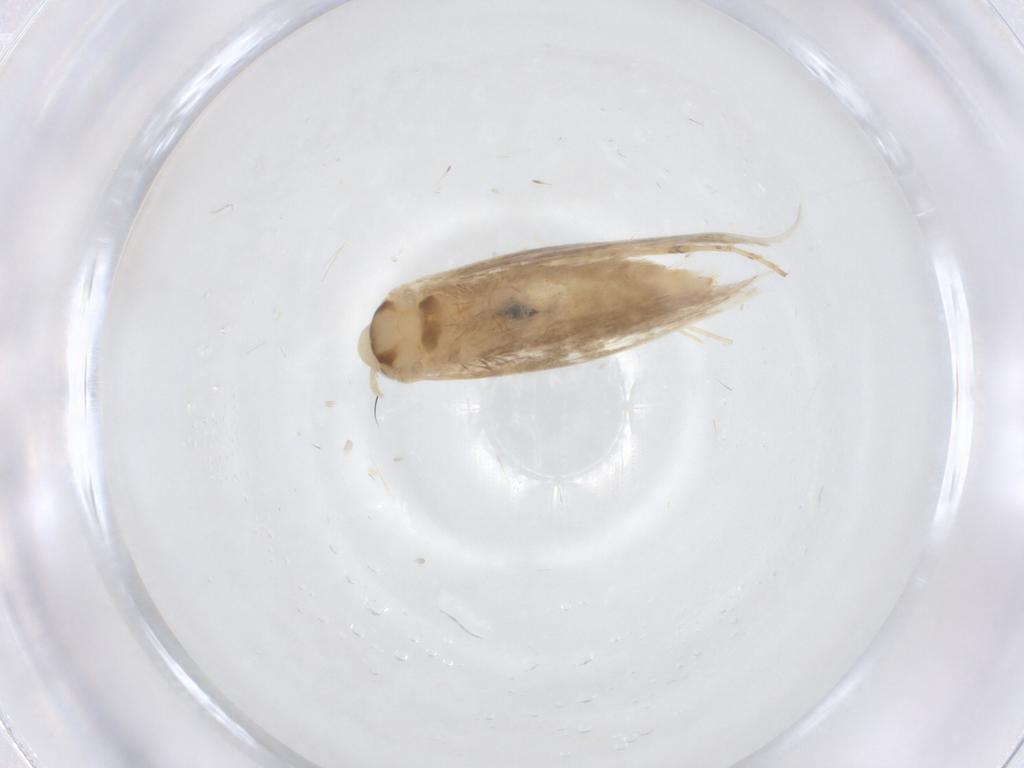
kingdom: Animalia
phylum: Arthropoda
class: Insecta
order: Lepidoptera
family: Gracillariidae
